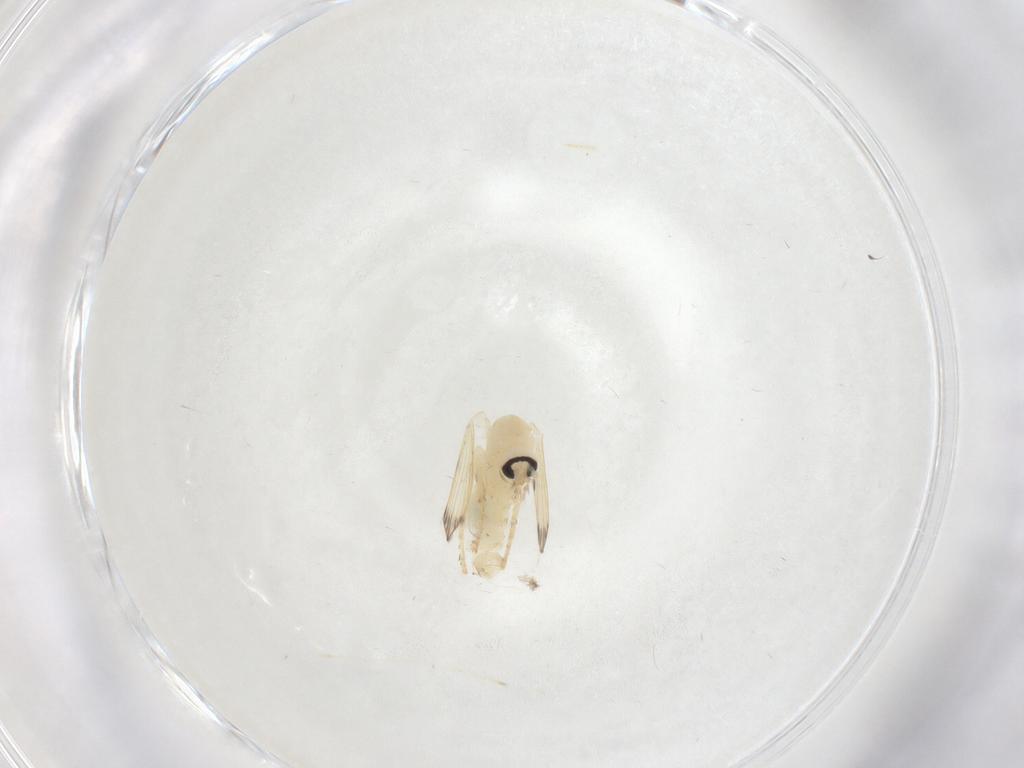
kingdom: Animalia
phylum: Arthropoda
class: Insecta
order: Diptera
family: Psychodidae
